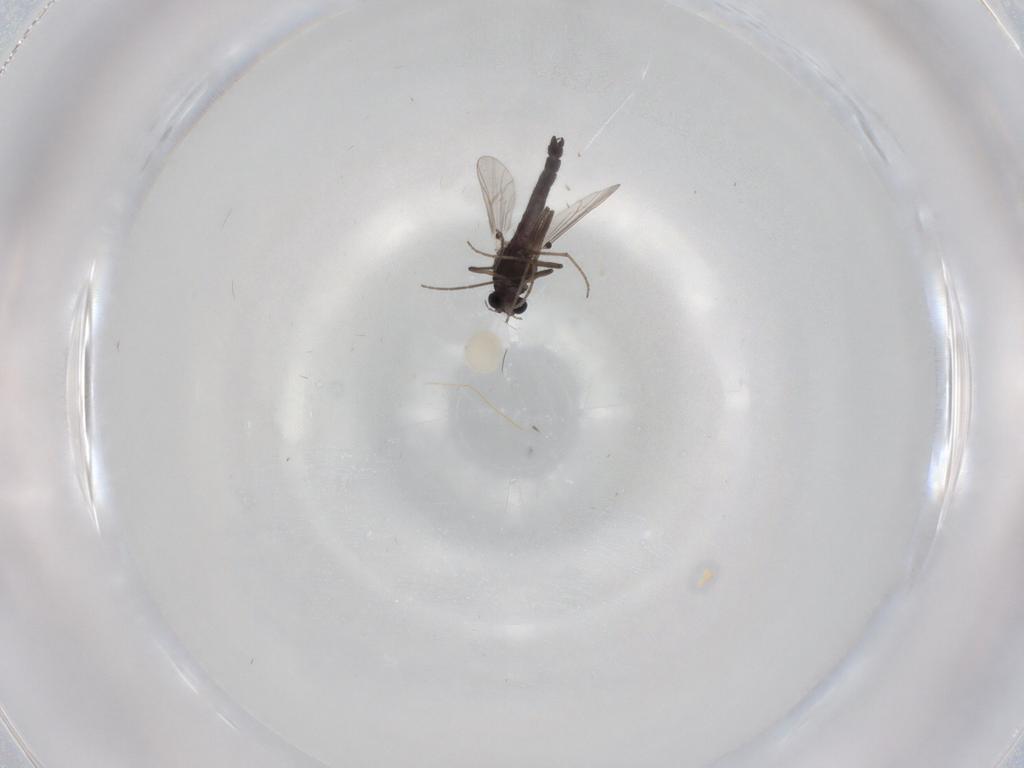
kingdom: Animalia
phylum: Arthropoda
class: Insecta
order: Diptera
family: Chironomidae
